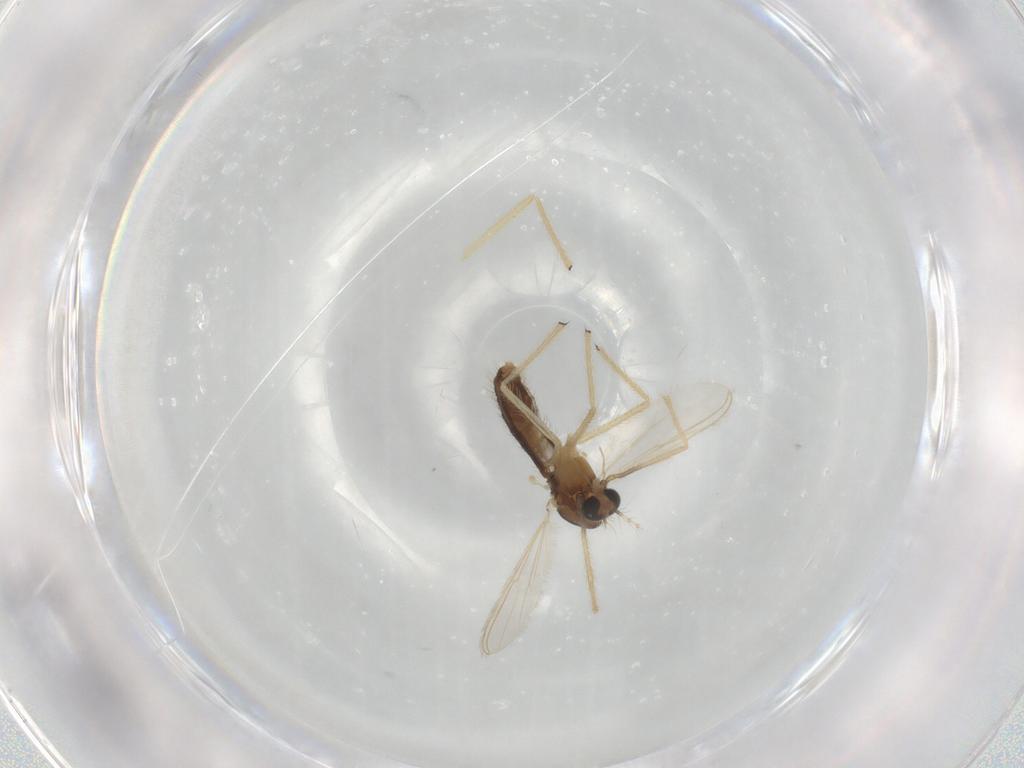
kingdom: Animalia
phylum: Arthropoda
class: Insecta
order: Diptera
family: Chironomidae
